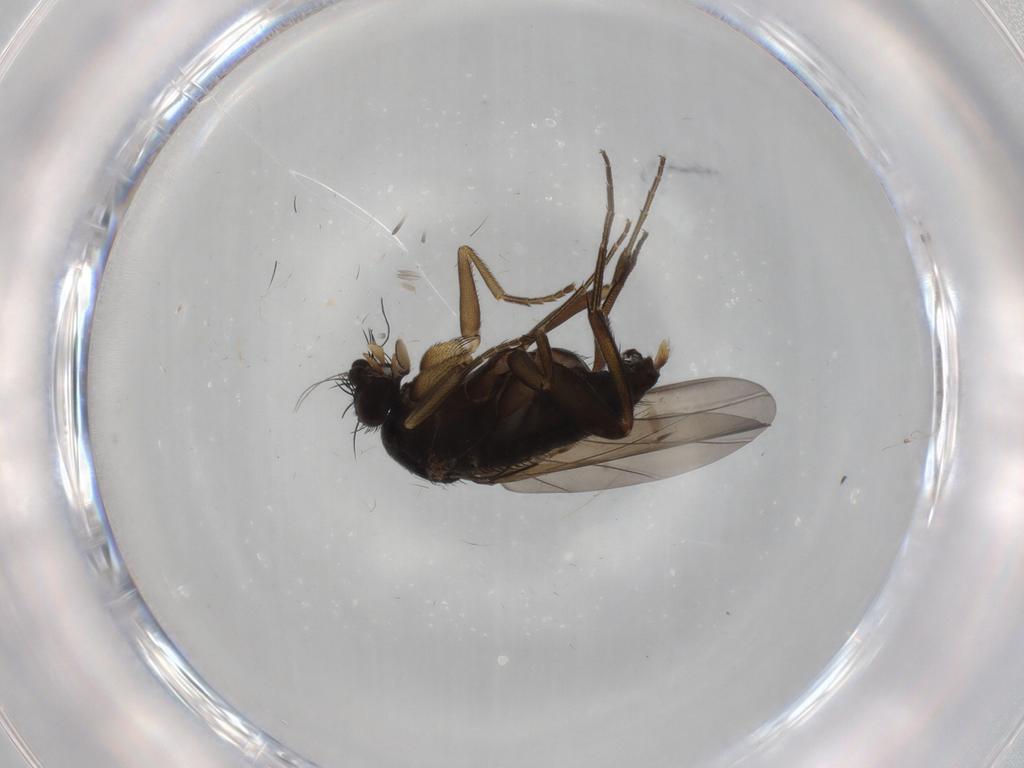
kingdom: Animalia
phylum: Arthropoda
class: Insecta
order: Diptera
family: Phoridae
